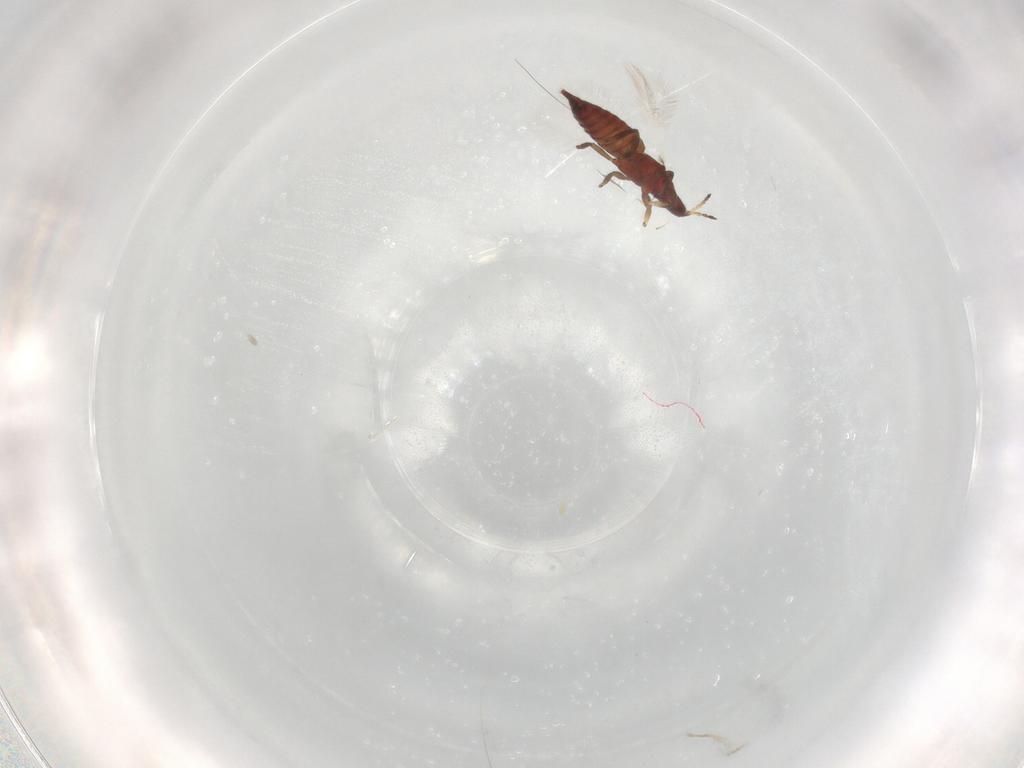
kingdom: Animalia
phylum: Arthropoda
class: Insecta
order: Thysanoptera
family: Phlaeothripidae
